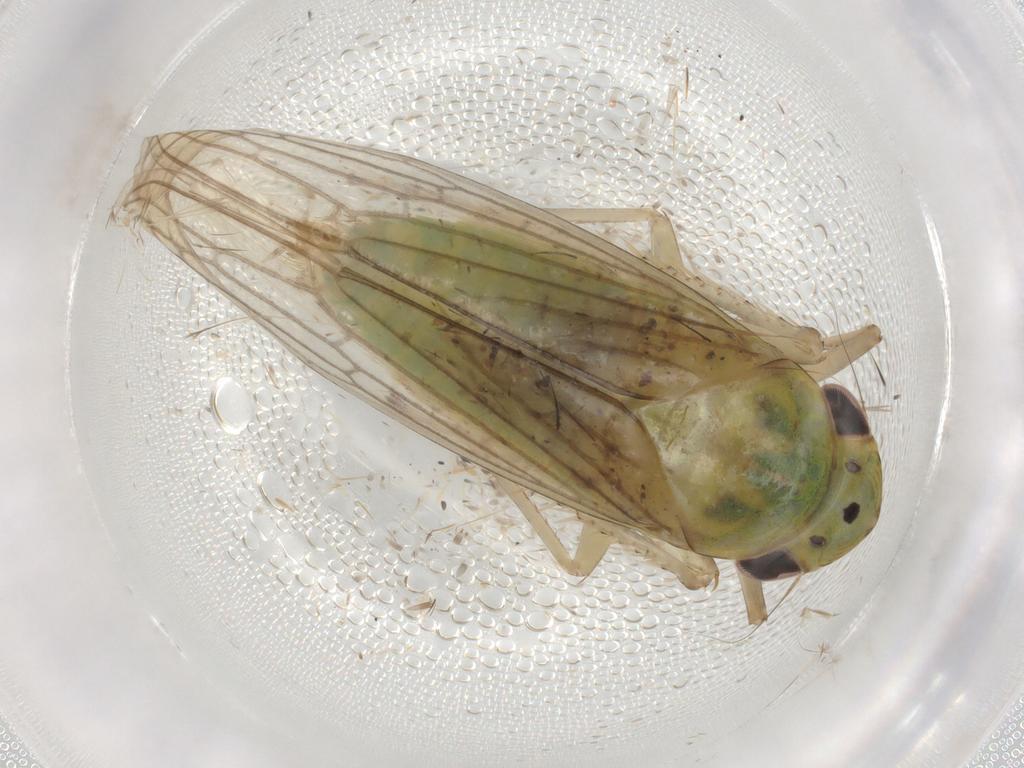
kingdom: Animalia
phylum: Arthropoda
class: Insecta
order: Hemiptera
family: Cicadellidae
